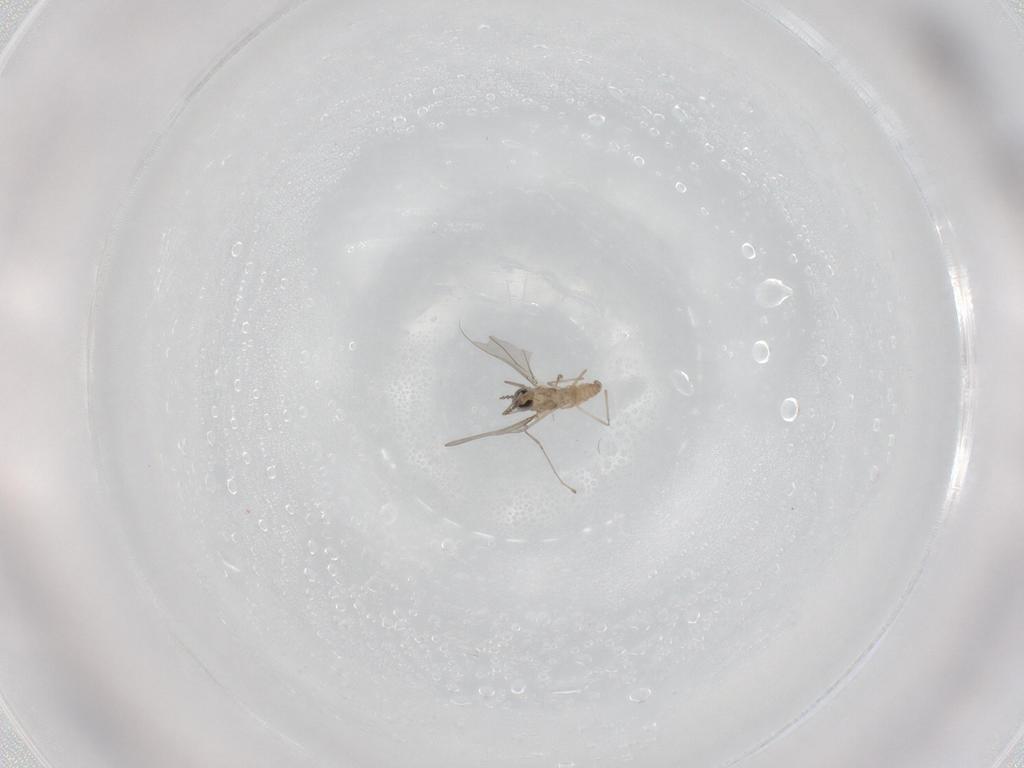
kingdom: Animalia
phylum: Arthropoda
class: Insecta
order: Diptera
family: Cecidomyiidae
